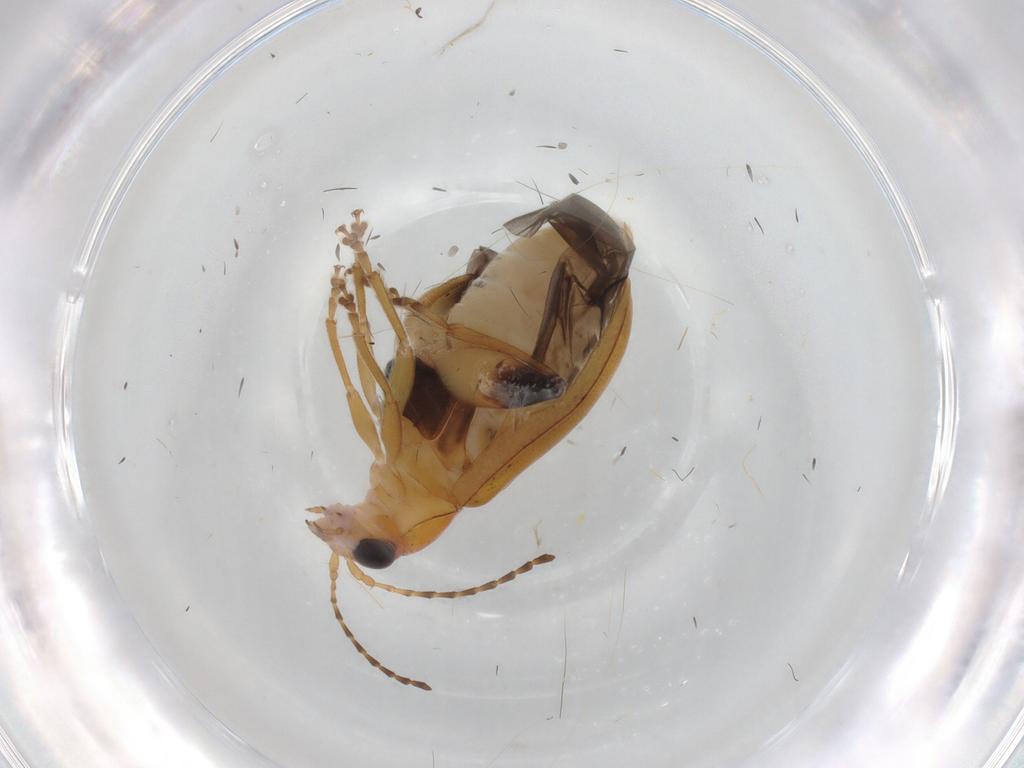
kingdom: Animalia
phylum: Arthropoda
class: Insecta
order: Coleoptera
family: Chrysomelidae
